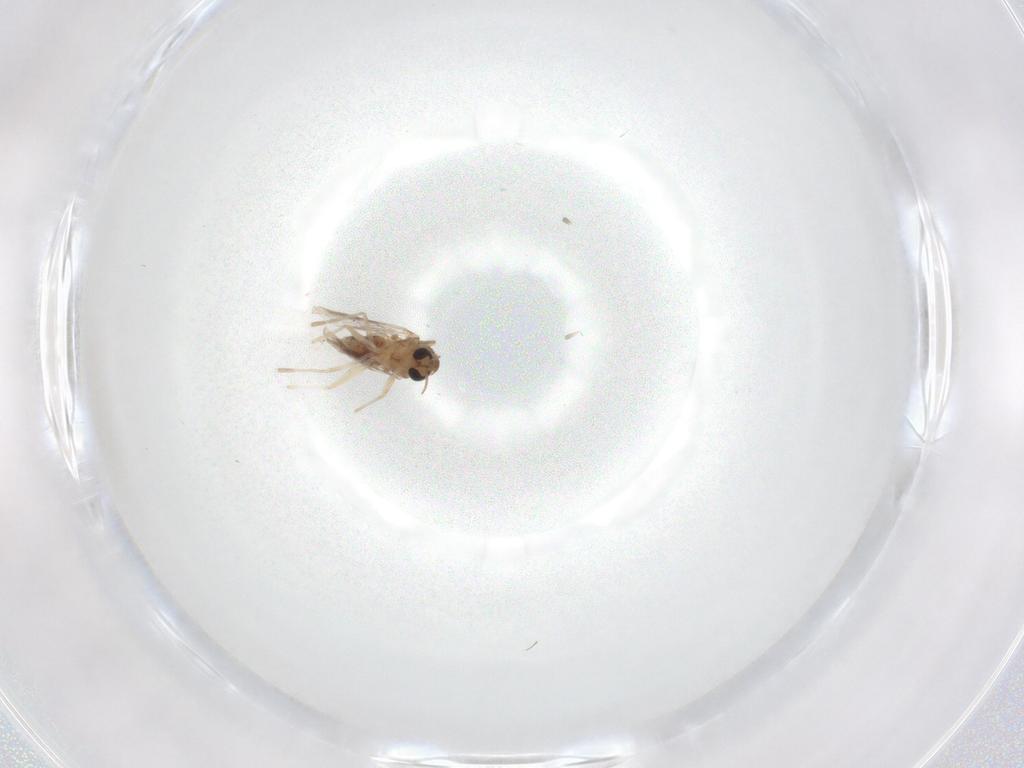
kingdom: Animalia
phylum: Arthropoda
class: Insecta
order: Diptera
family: Chironomidae
